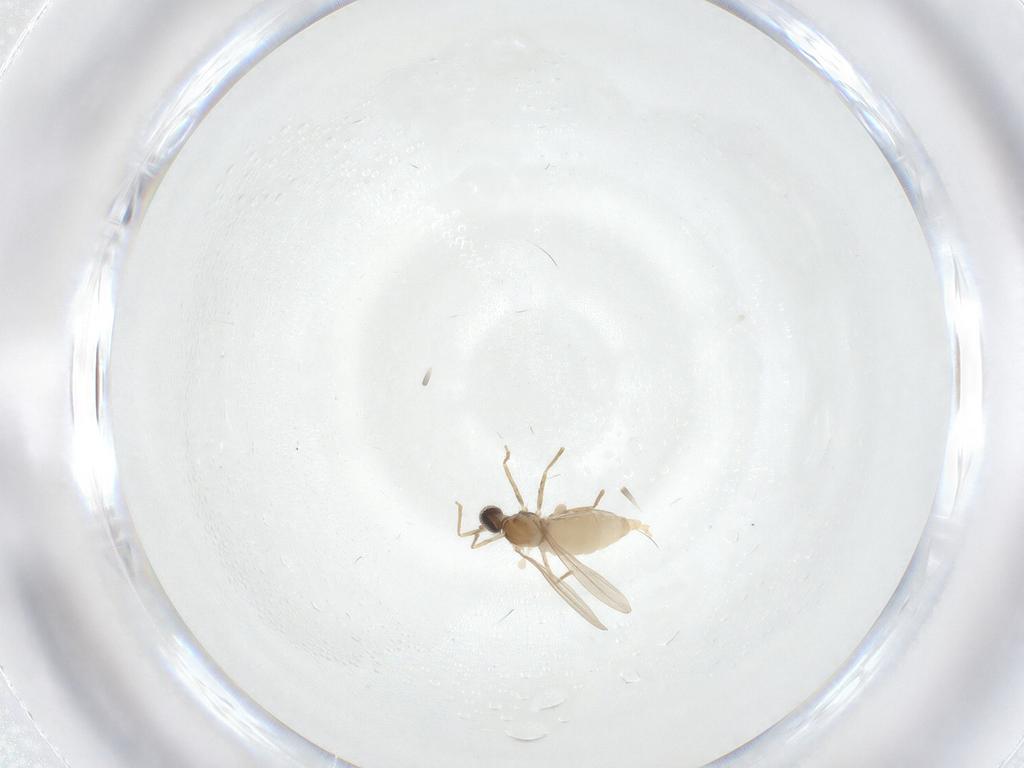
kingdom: Animalia
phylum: Arthropoda
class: Insecta
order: Diptera
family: Cecidomyiidae
